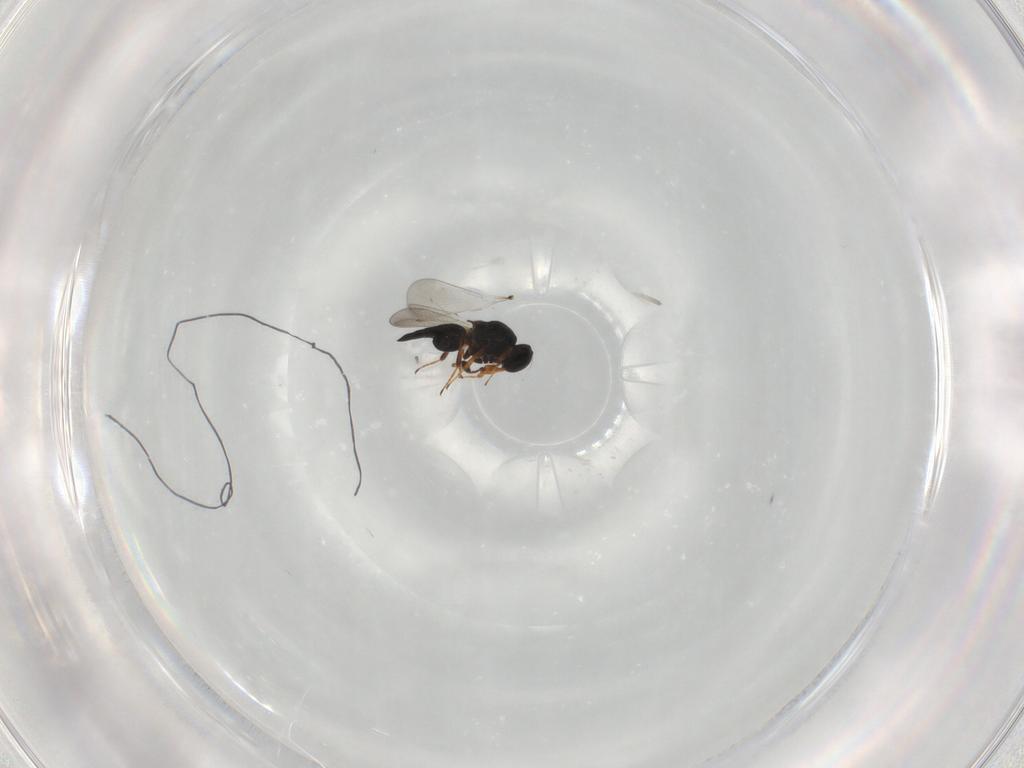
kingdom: Animalia
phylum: Arthropoda
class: Insecta
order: Hymenoptera
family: Platygastridae
